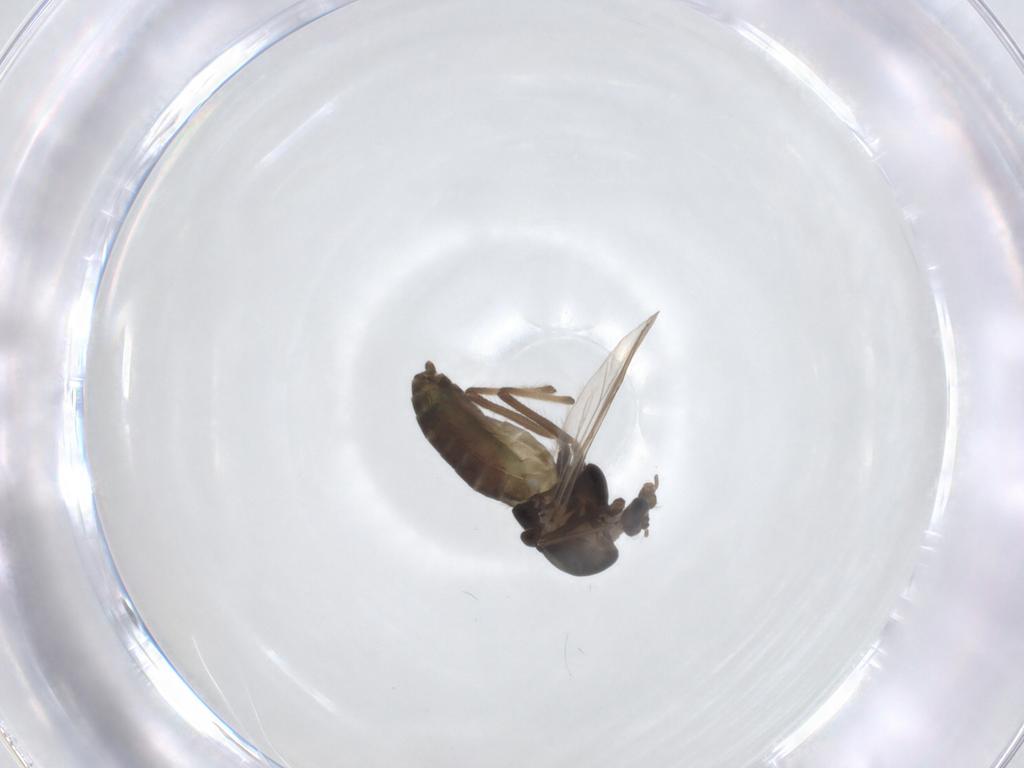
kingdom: Animalia
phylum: Arthropoda
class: Insecta
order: Diptera
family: Chironomidae
